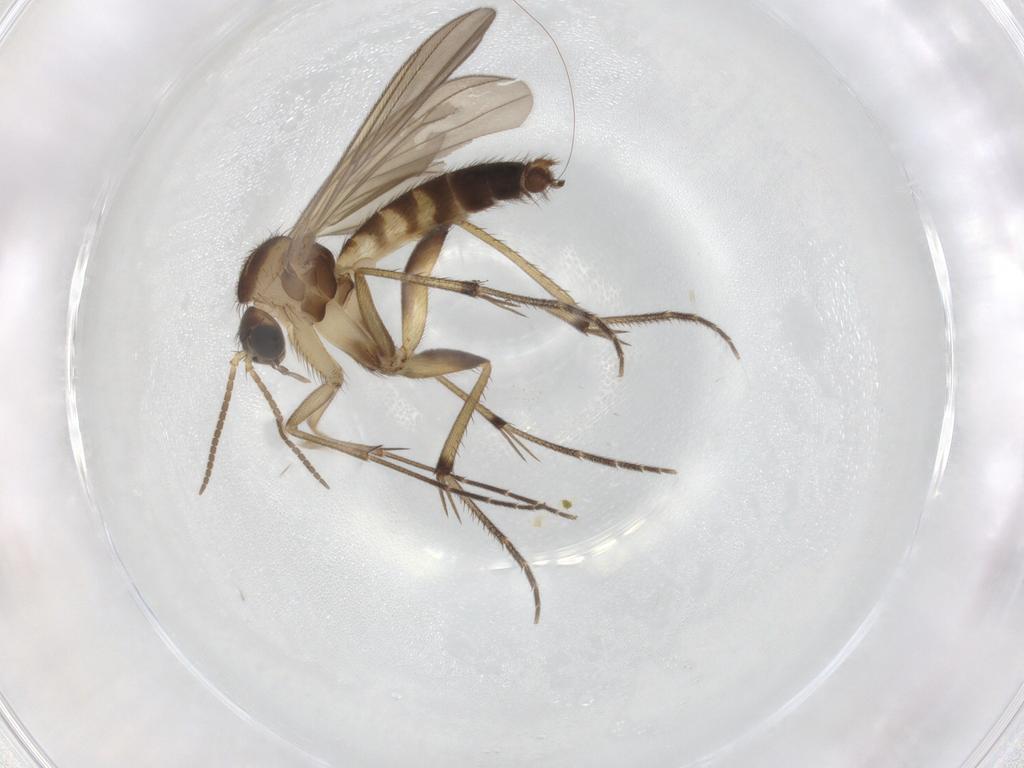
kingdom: Animalia
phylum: Arthropoda
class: Insecta
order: Diptera
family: Mycetophilidae
